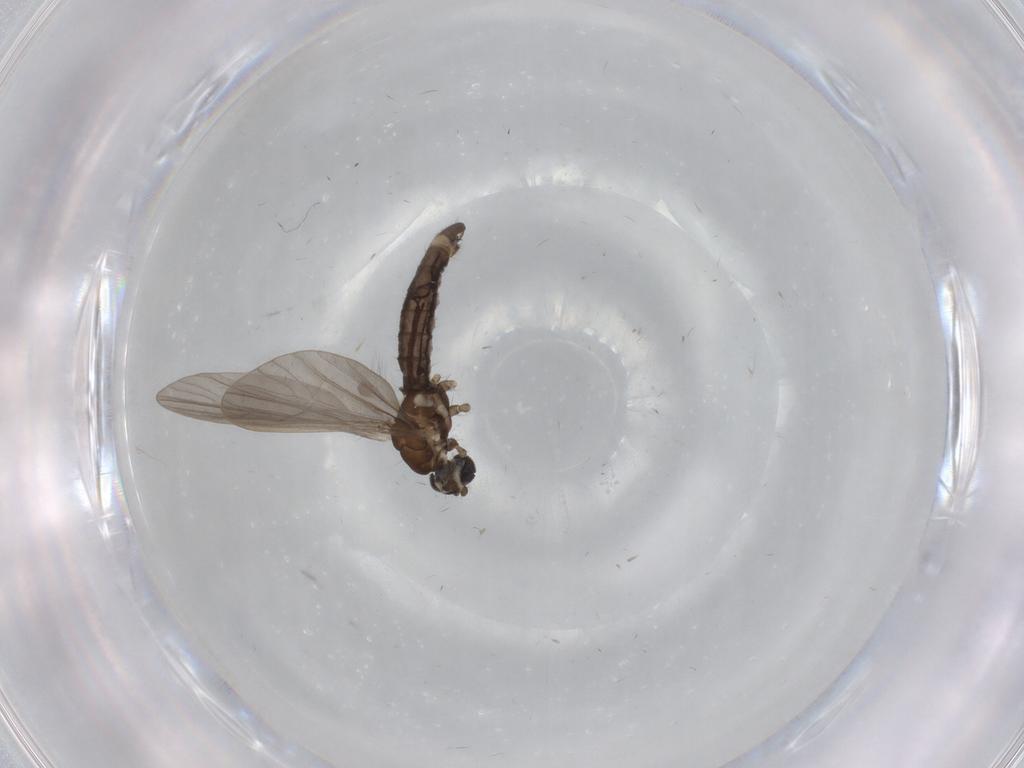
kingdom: Animalia
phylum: Arthropoda
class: Insecta
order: Diptera
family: Limoniidae
